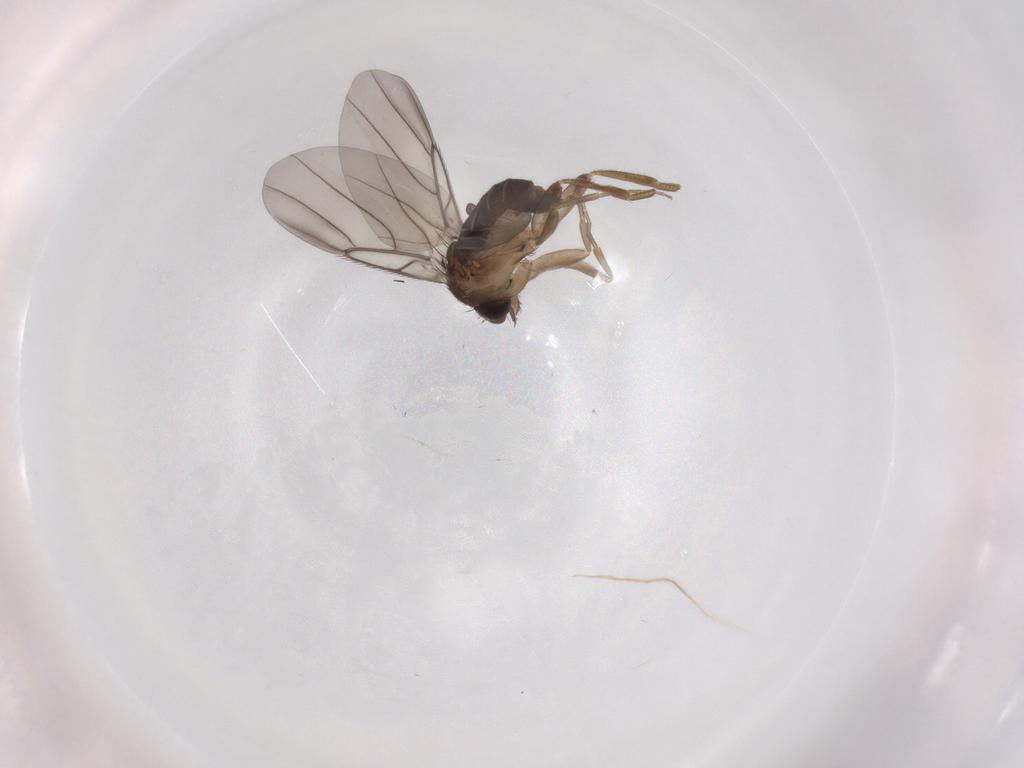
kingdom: Animalia
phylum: Arthropoda
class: Insecta
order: Diptera
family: Phoridae
